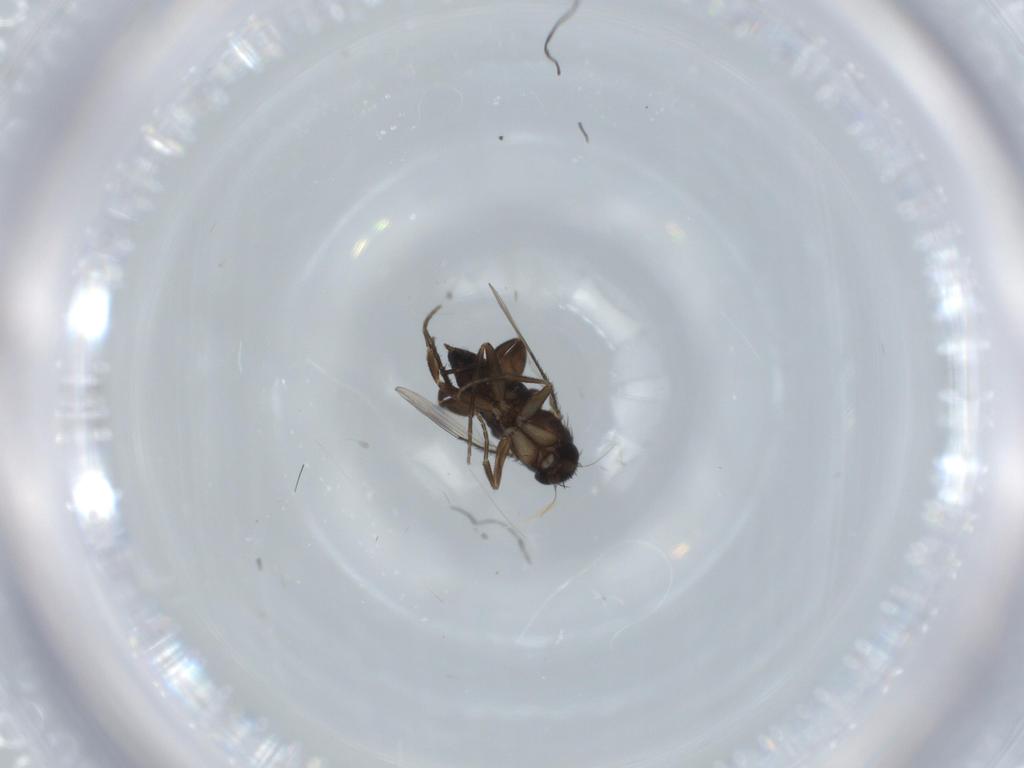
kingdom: Animalia
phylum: Arthropoda
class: Insecta
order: Diptera
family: Phoridae
